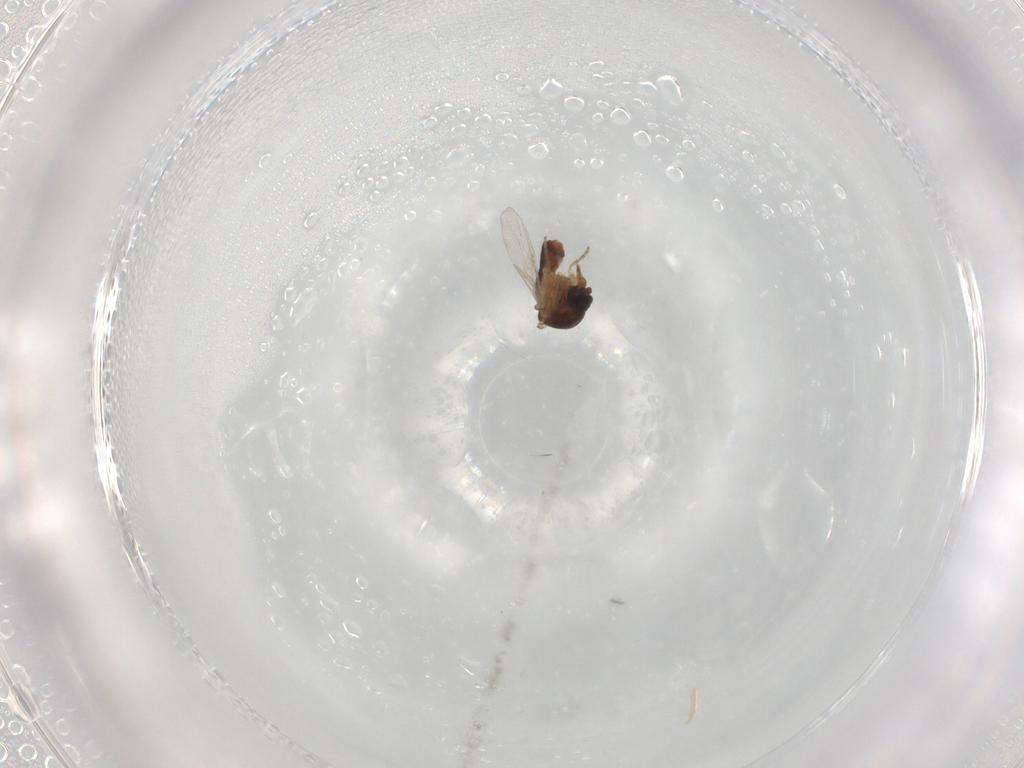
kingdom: Animalia
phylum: Arthropoda
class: Insecta
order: Diptera
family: Ceratopogonidae
